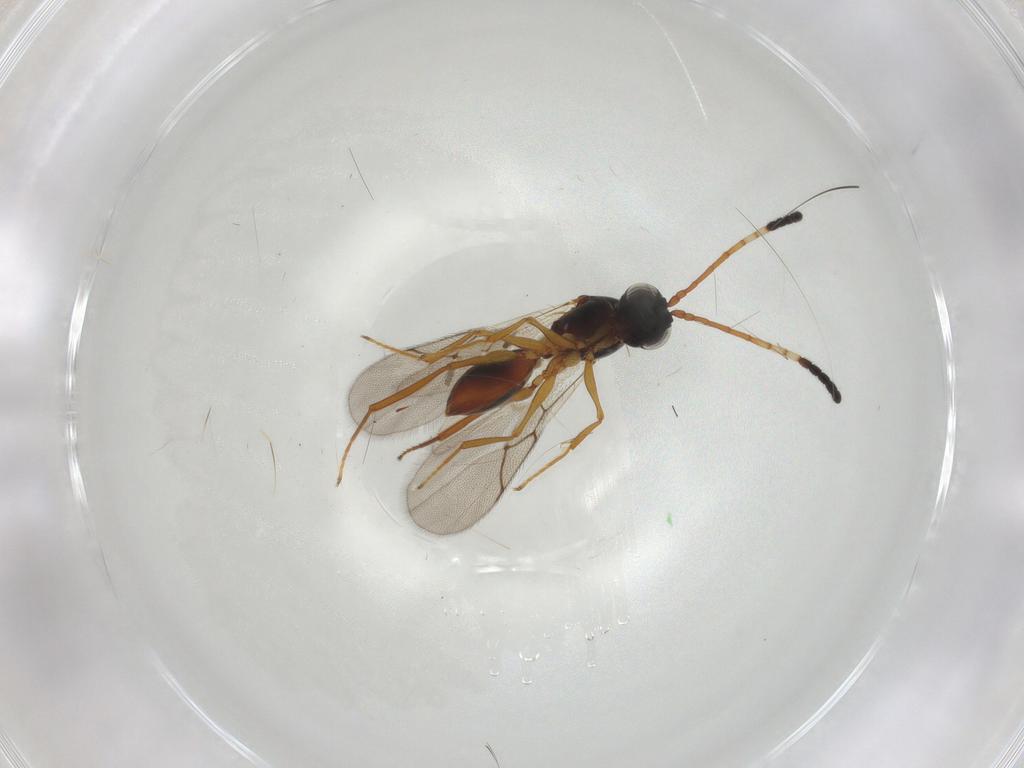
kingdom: Animalia
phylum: Arthropoda
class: Insecta
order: Hymenoptera
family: Figitidae
